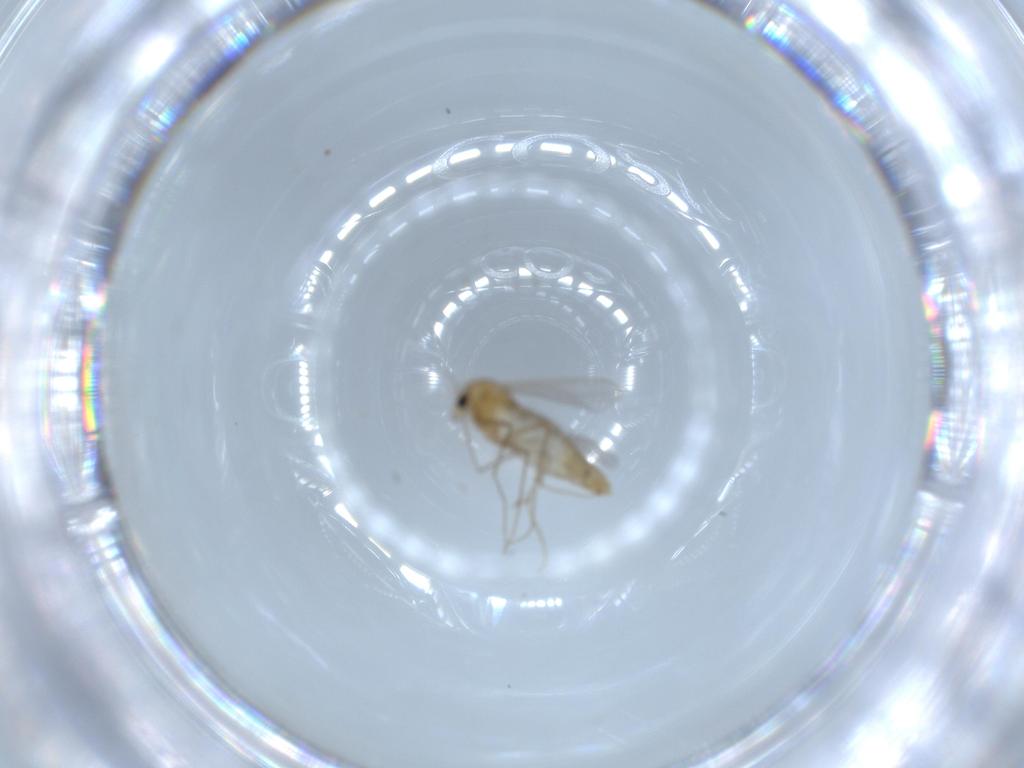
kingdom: Animalia
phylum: Arthropoda
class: Insecta
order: Diptera
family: Chironomidae
